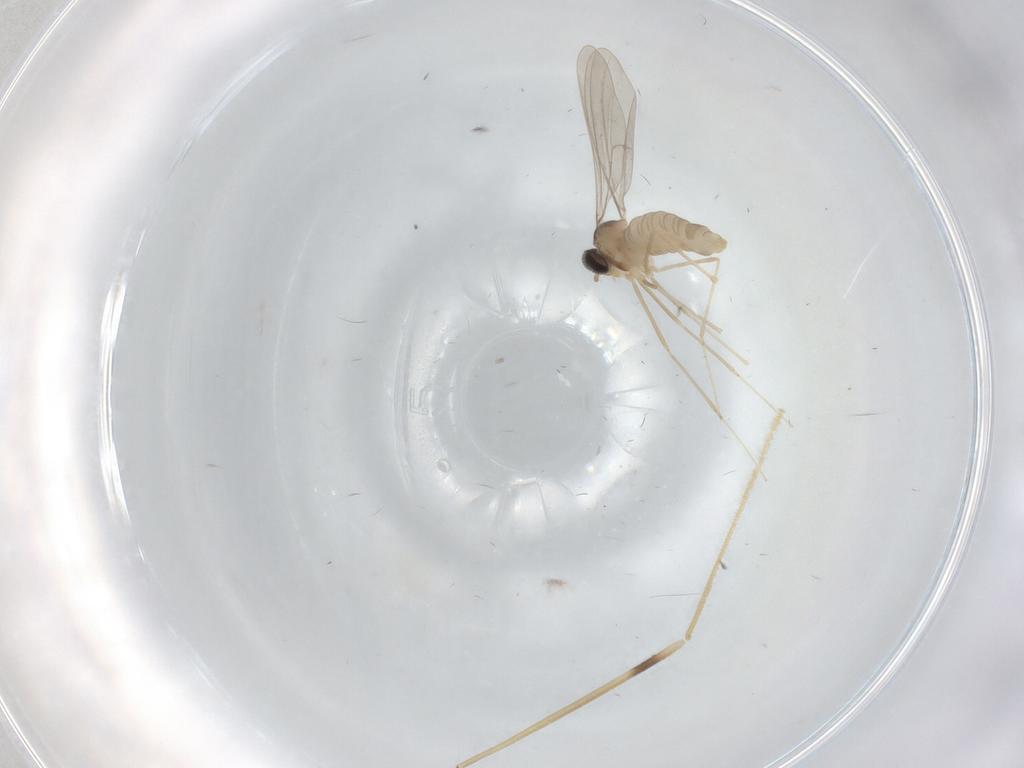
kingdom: Animalia
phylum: Arthropoda
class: Insecta
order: Diptera
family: Cecidomyiidae
